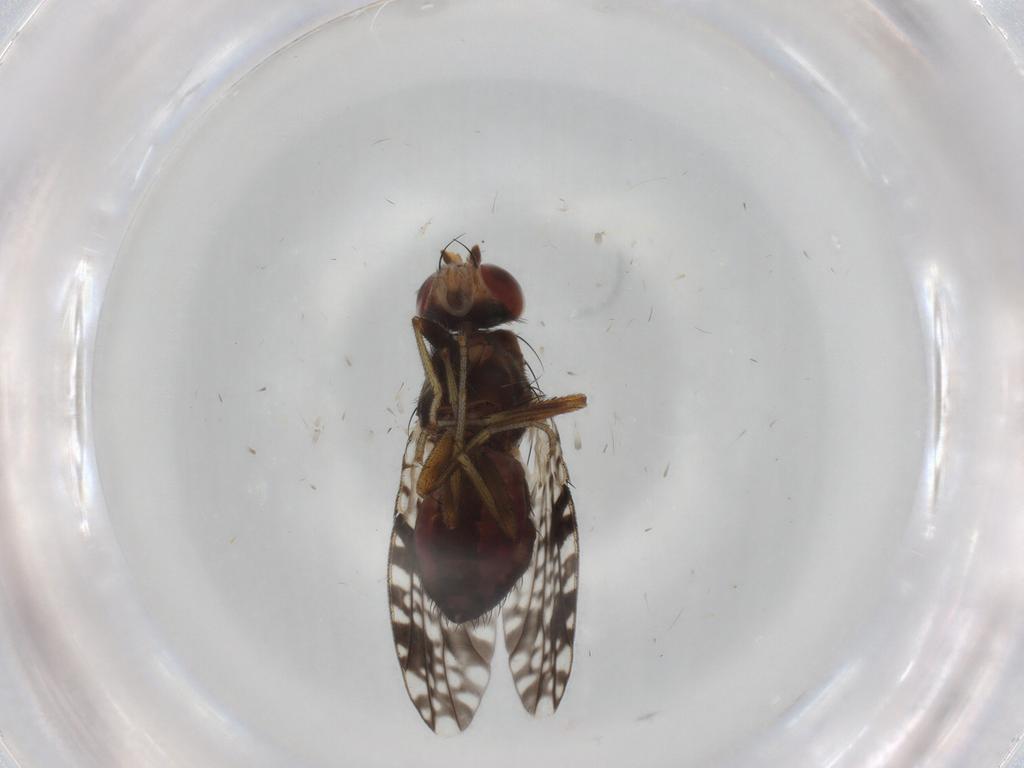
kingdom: Animalia
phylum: Arthropoda
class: Insecta
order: Diptera
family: Tephritidae
